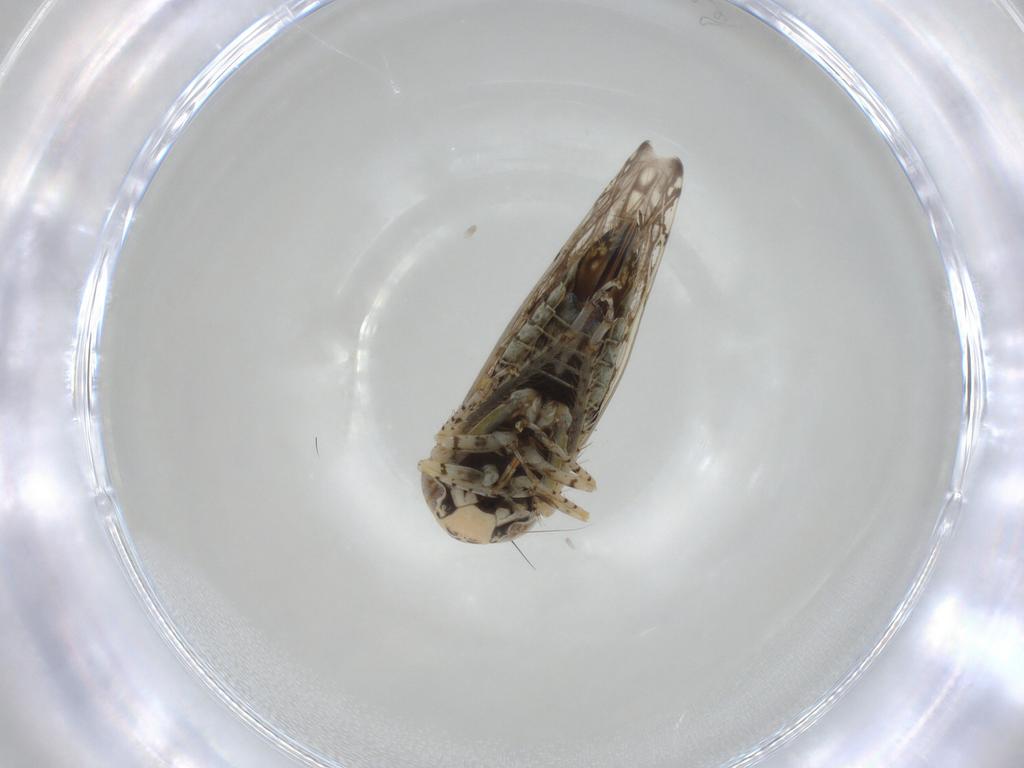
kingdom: Animalia
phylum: Arthropoda
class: Insecta
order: Hemiptera
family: Cicadellidae
